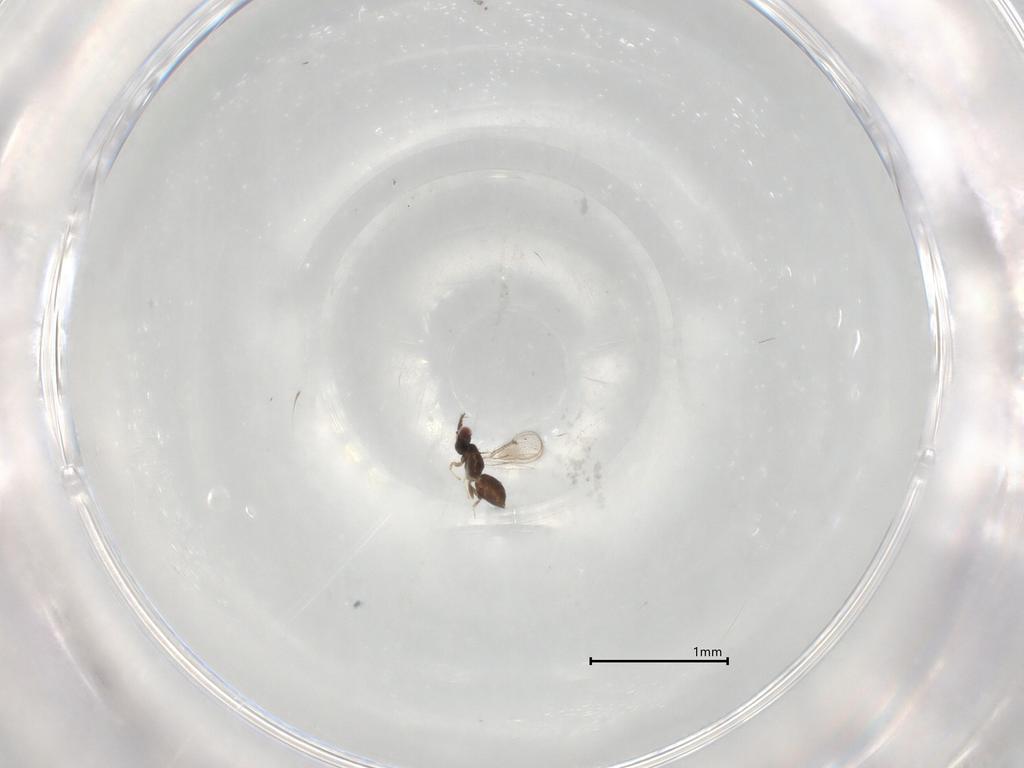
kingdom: Animalia
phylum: Arthropoda
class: Insecta
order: Hymenoptera
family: Eulophidae
